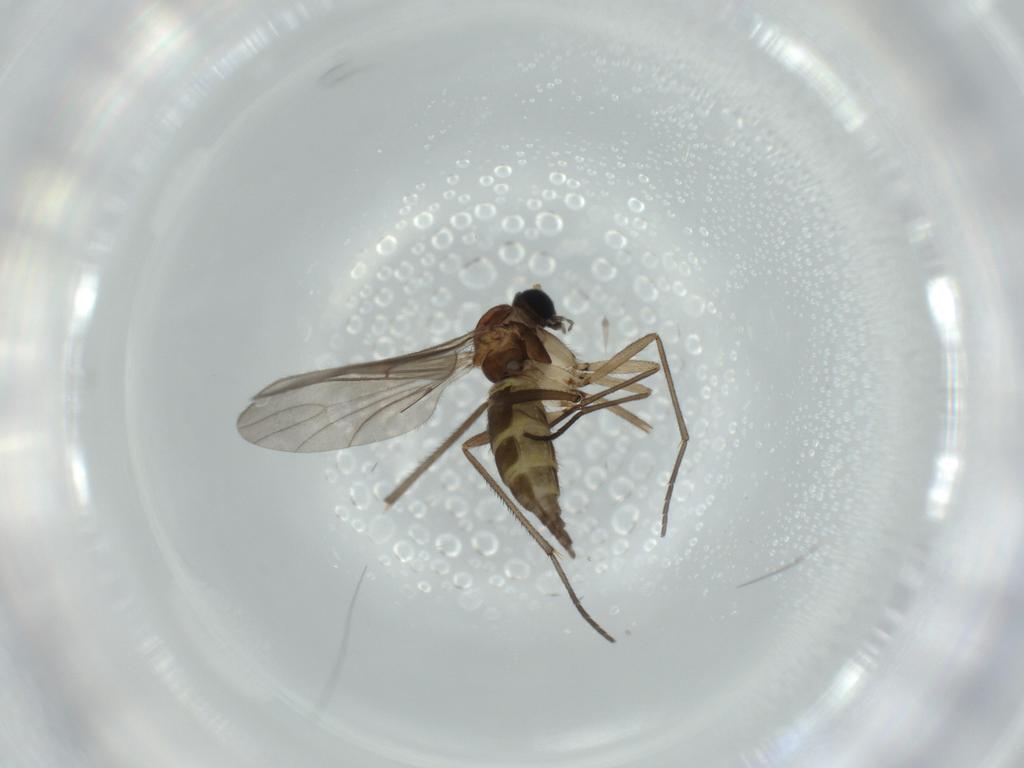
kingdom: Animalia
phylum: Arthropoda
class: Insecta
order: Diptera
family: Sciaridae
